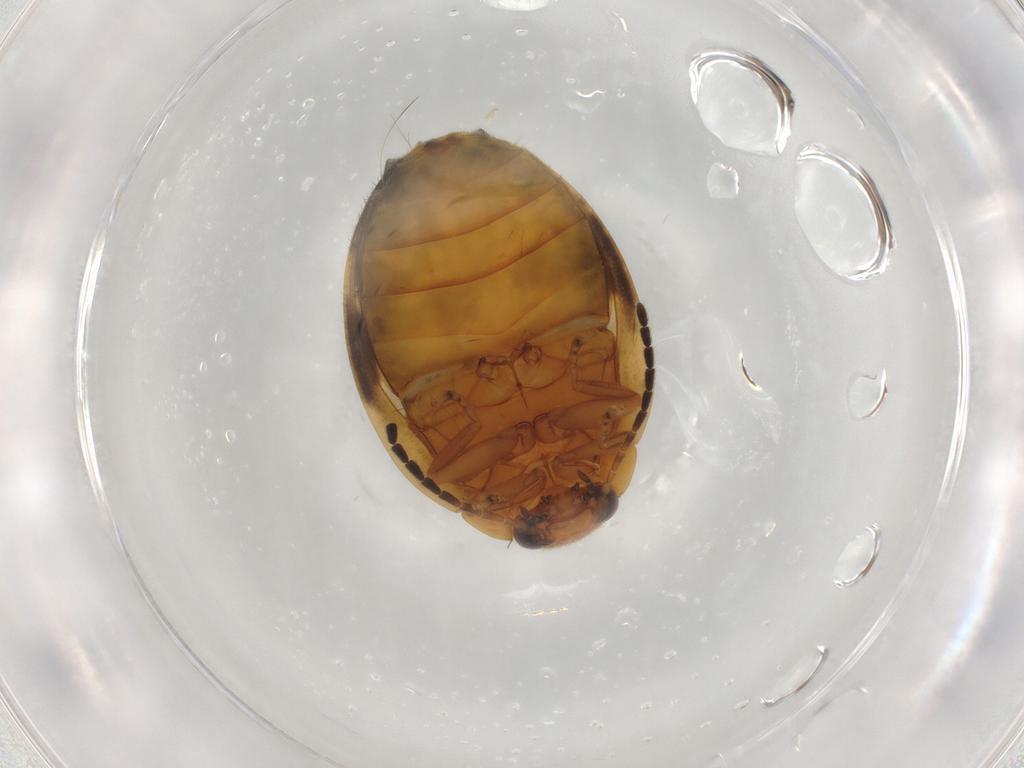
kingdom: Animalia
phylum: Arthropoda
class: Insecta
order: Coleoptera
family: Scirtidae
